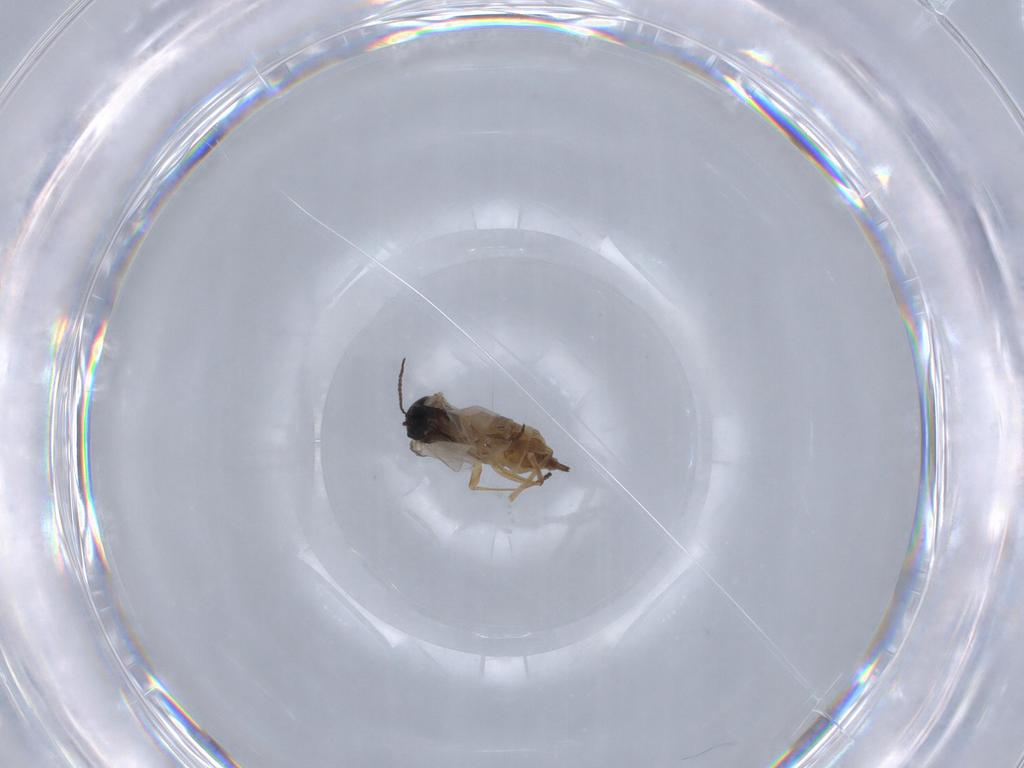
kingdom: Animalia
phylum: Arthropoda
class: Insecta
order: Diptera
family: Sciaridae
